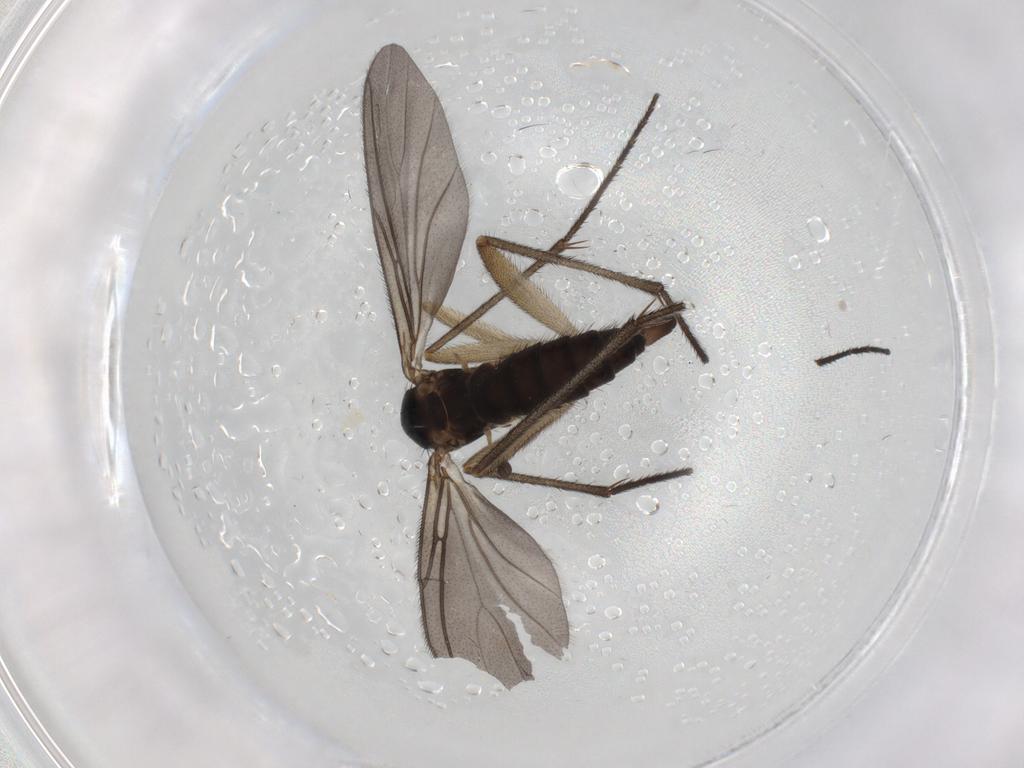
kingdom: Animalia
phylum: Arthropoda
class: Insecta
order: Diptera
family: Sciaridae
